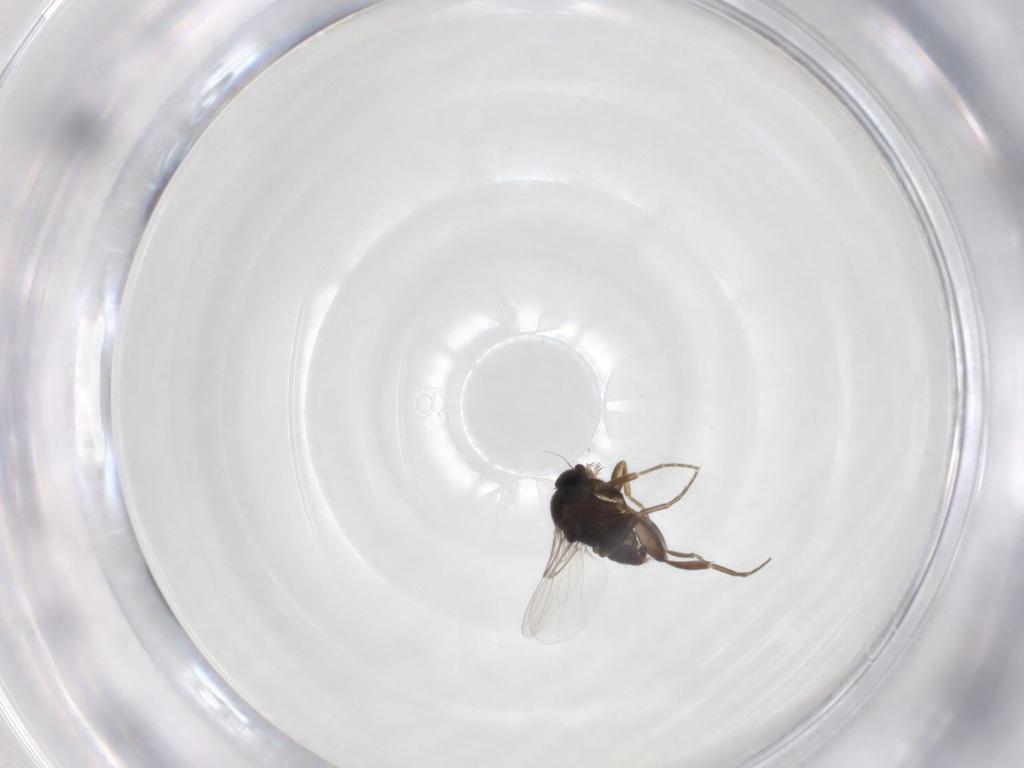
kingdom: Animalia
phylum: Arthropoda
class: Insecta
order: Diptera
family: Phoridae
